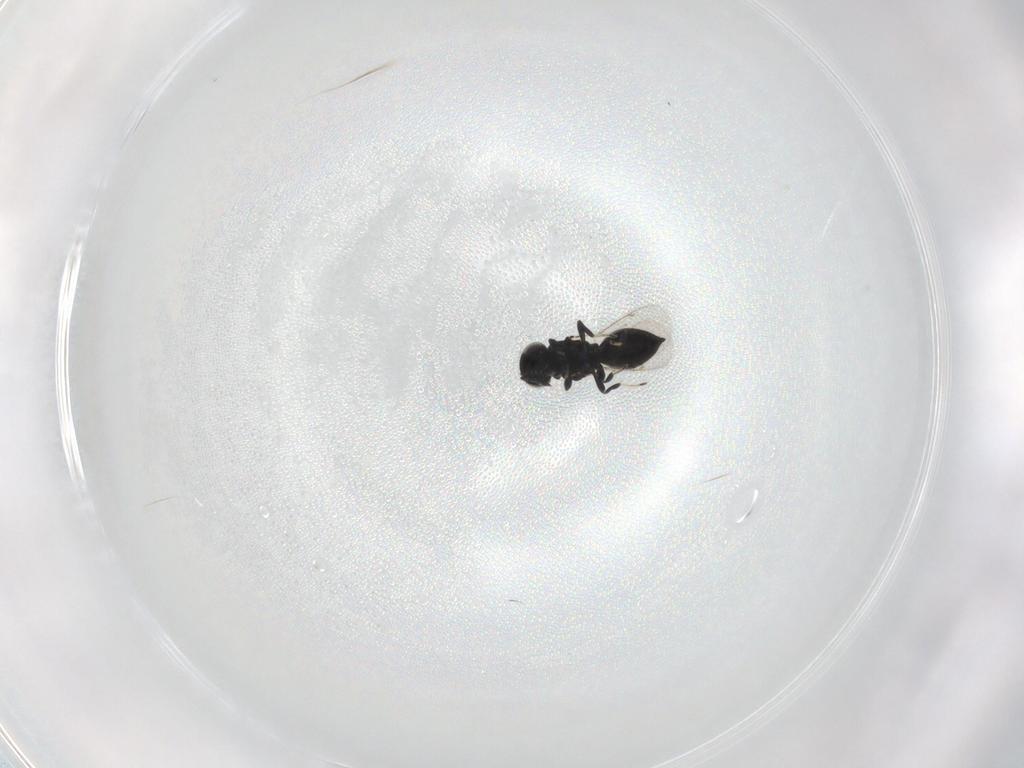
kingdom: Animalia
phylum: Arthropoda
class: Insecta
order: Hymenoptera
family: Eulophidae
